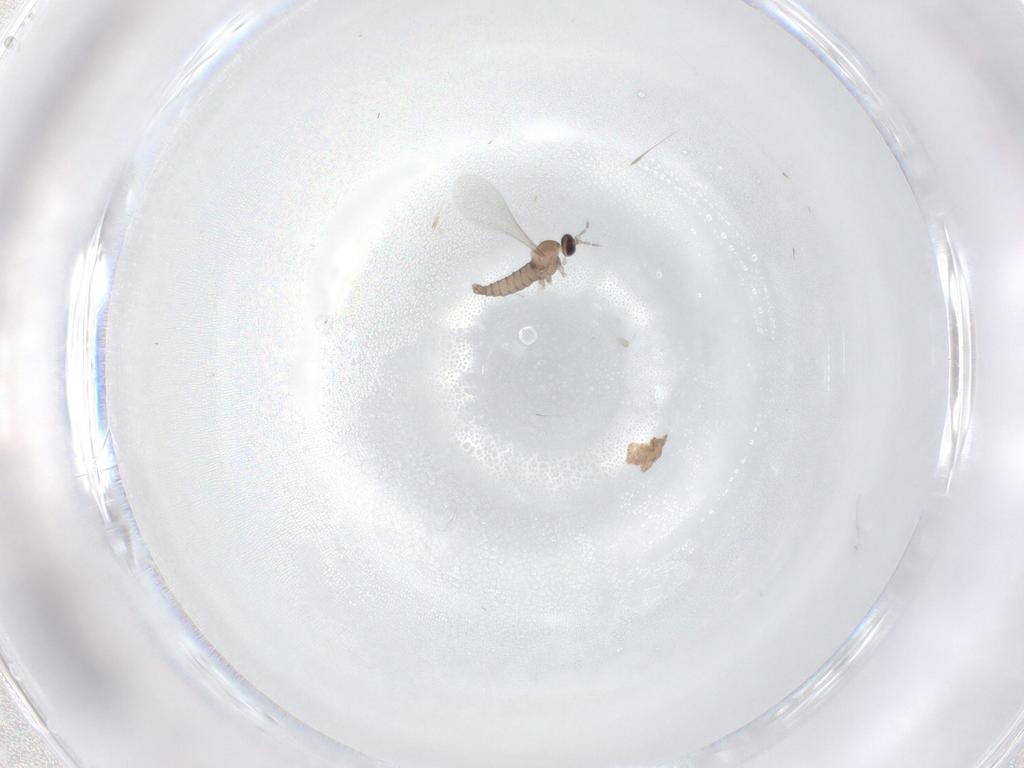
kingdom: Animalia
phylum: Arthropoda
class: Insecta
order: Diptera
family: Cecidomyiidae
